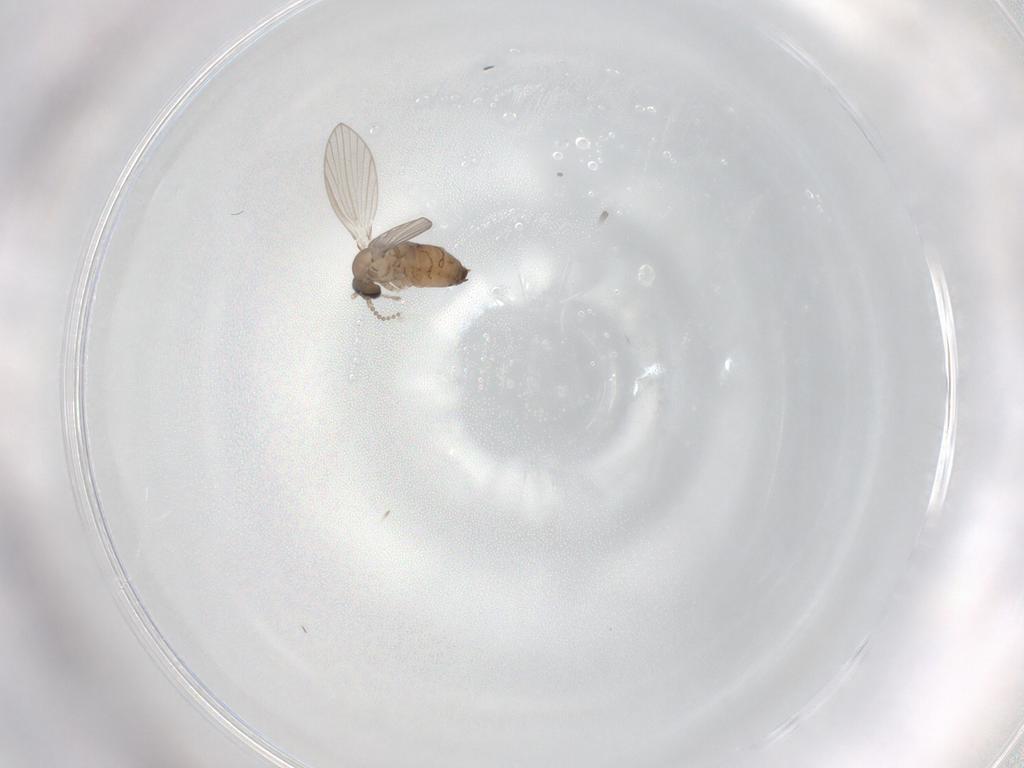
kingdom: Animalia
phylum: Arthropoda
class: Insecta
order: Diptera
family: Psychodidae
